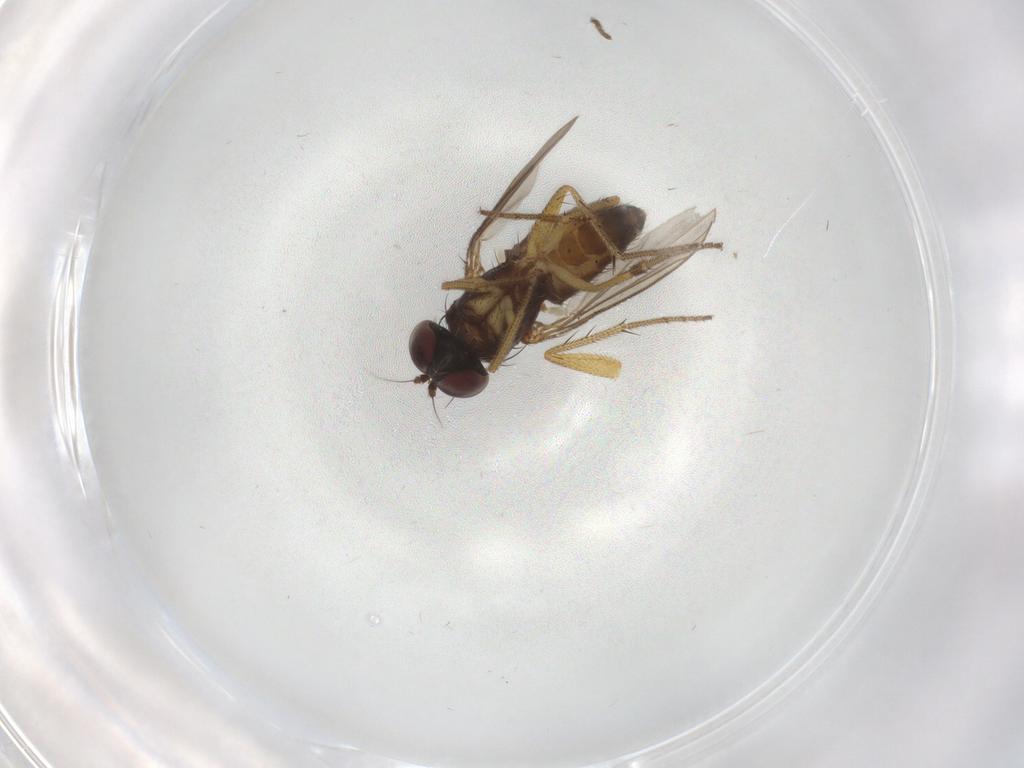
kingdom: Animalia
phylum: Arthropoda
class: Insecta
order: Diptera
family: Dolichopodidae
